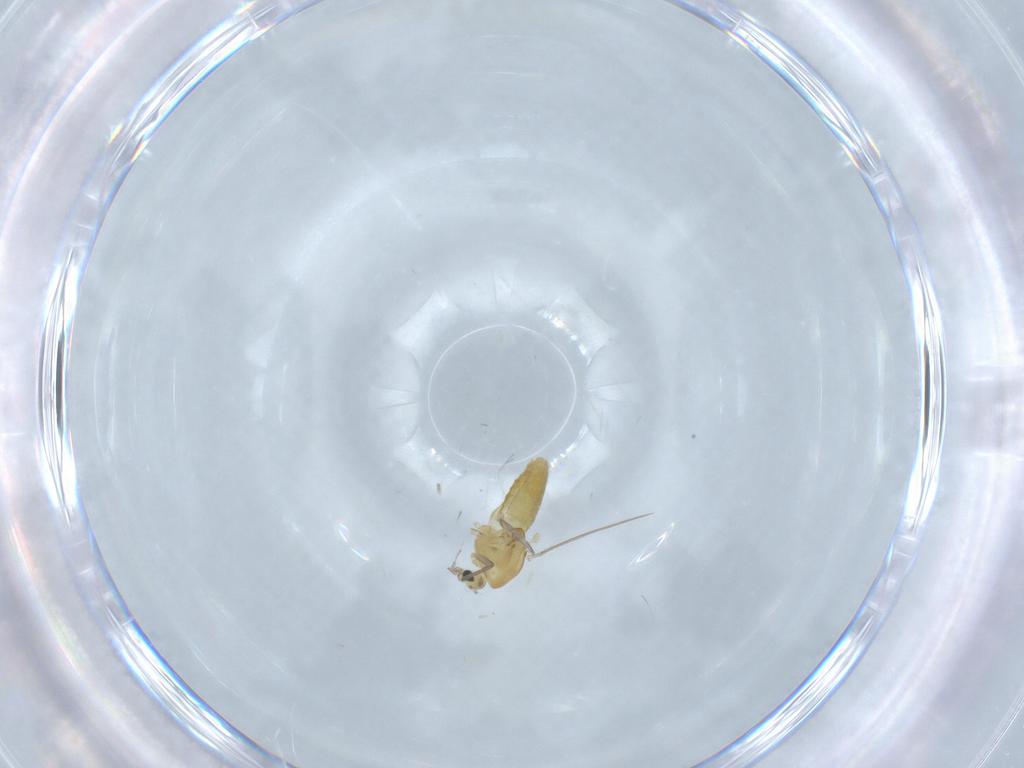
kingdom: Animalia
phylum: Arthropoda
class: Insecta
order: Diptera
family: Chironomidae
